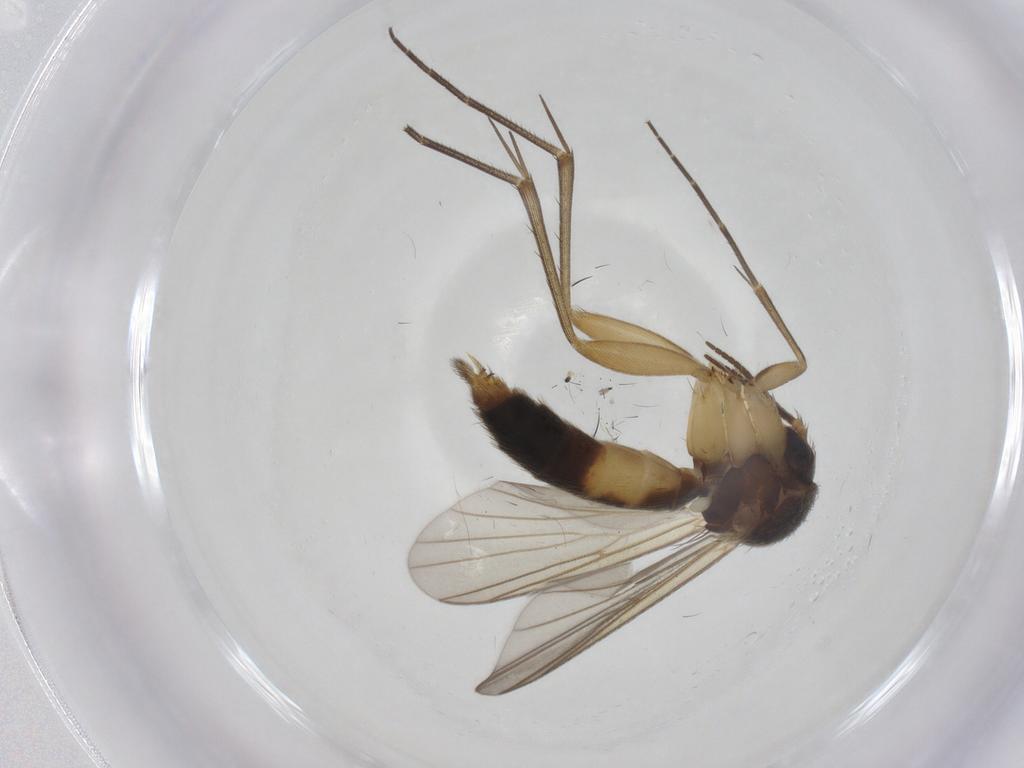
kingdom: Animalia
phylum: Arthropoda
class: Insecta
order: Diptera
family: Mycetophilidae
